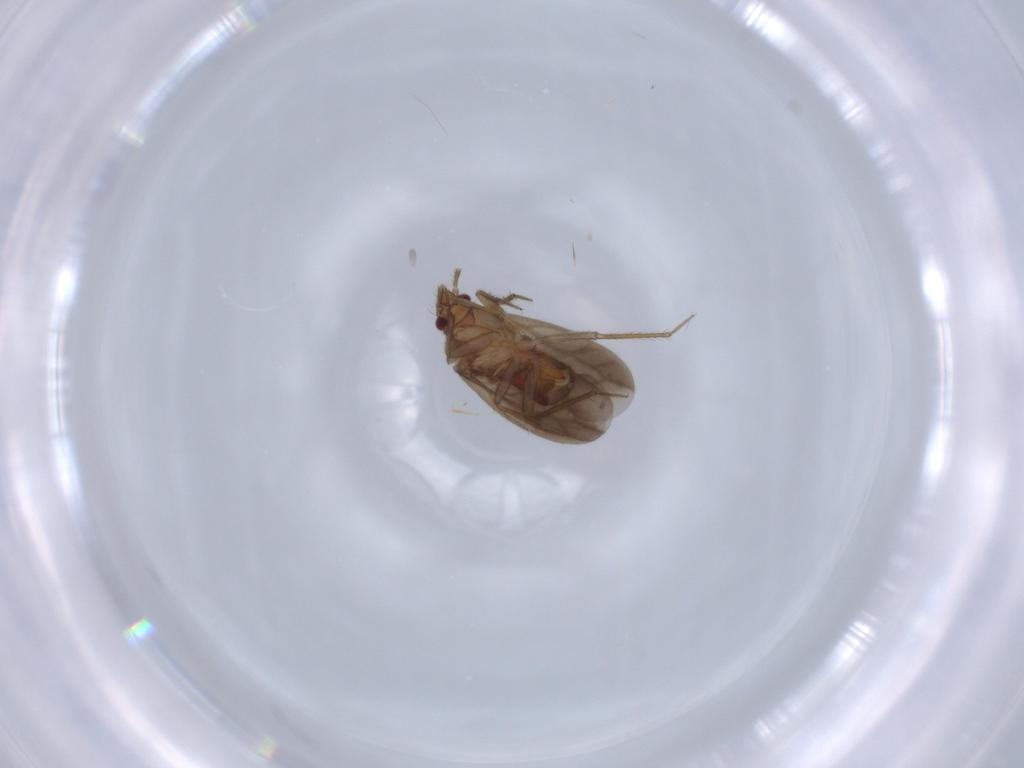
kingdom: Animalia
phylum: Arthropoda
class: Insecta
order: Hemiptera
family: Ceratocombidae
